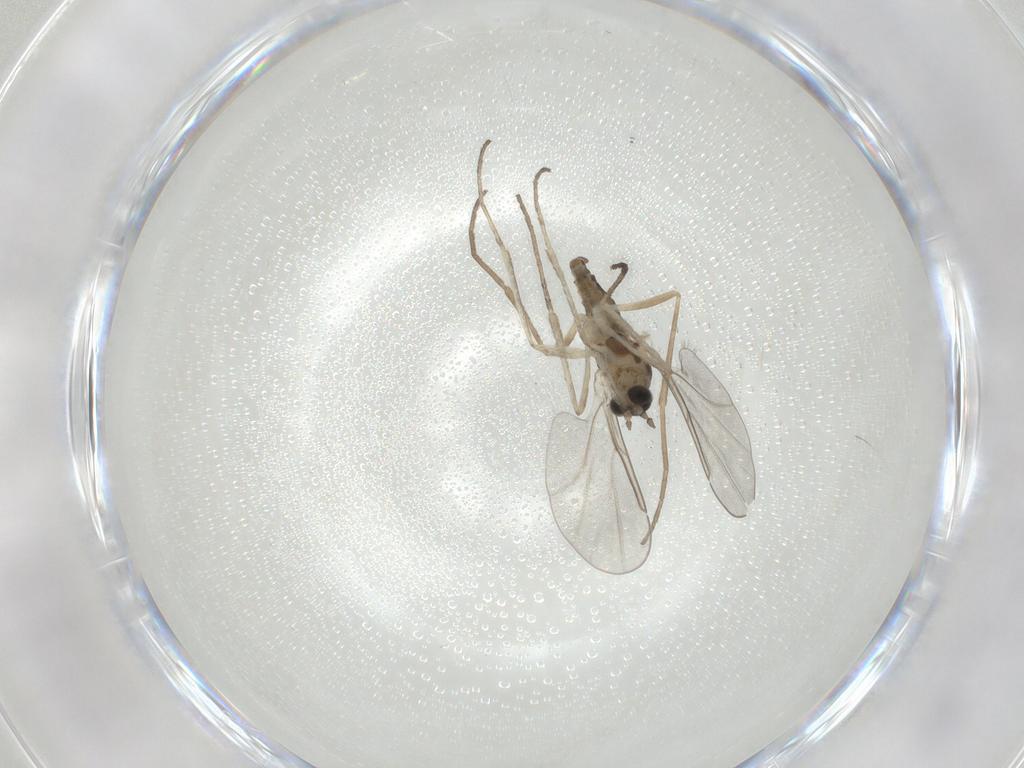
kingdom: Animalia
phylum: Arthropoda
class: Insecta
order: Diptera
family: Cecidomyiidae
